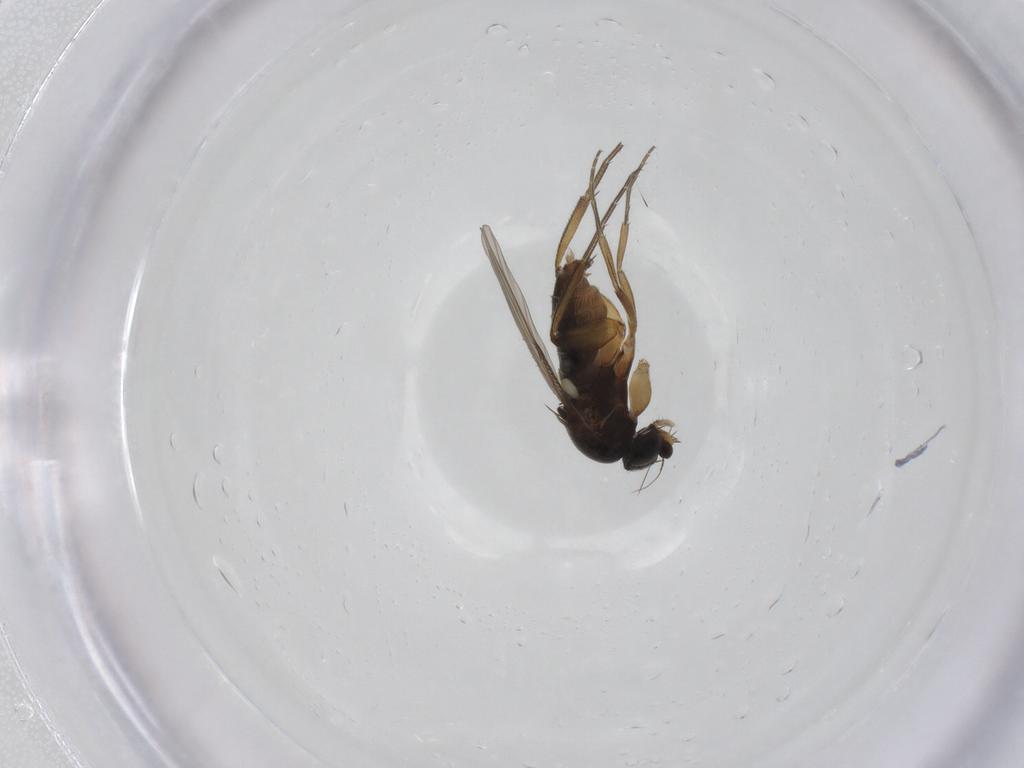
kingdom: Animalia
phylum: Arthropoda
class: Insecta
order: Diptera
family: Phoridae
